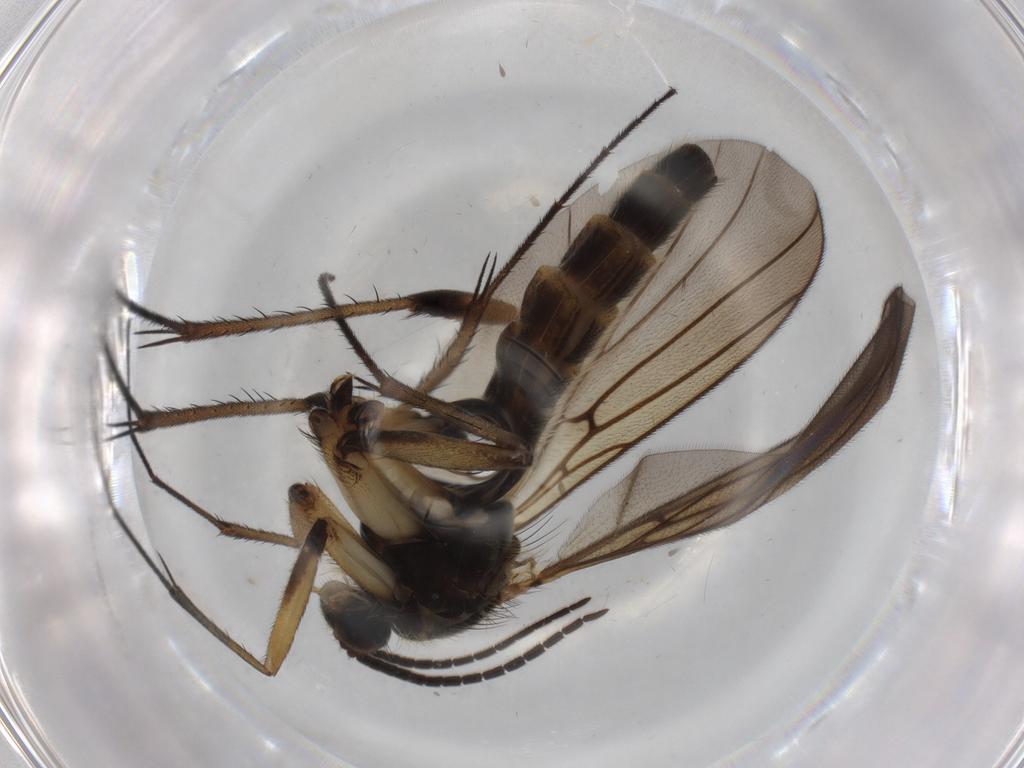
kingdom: Animalia
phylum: Arthropoda
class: Insecta
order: Diptera
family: Mycetophilidae
